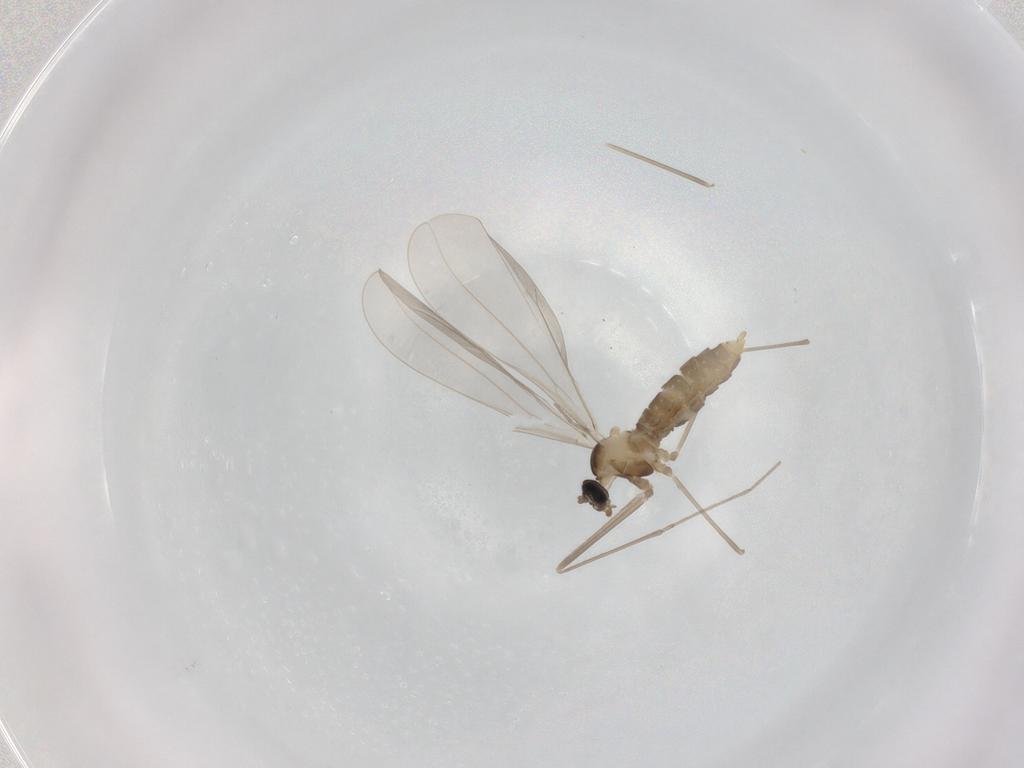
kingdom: Animalia
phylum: Arthropoda
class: Insecta
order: Diptera
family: Cecidomyiidae
